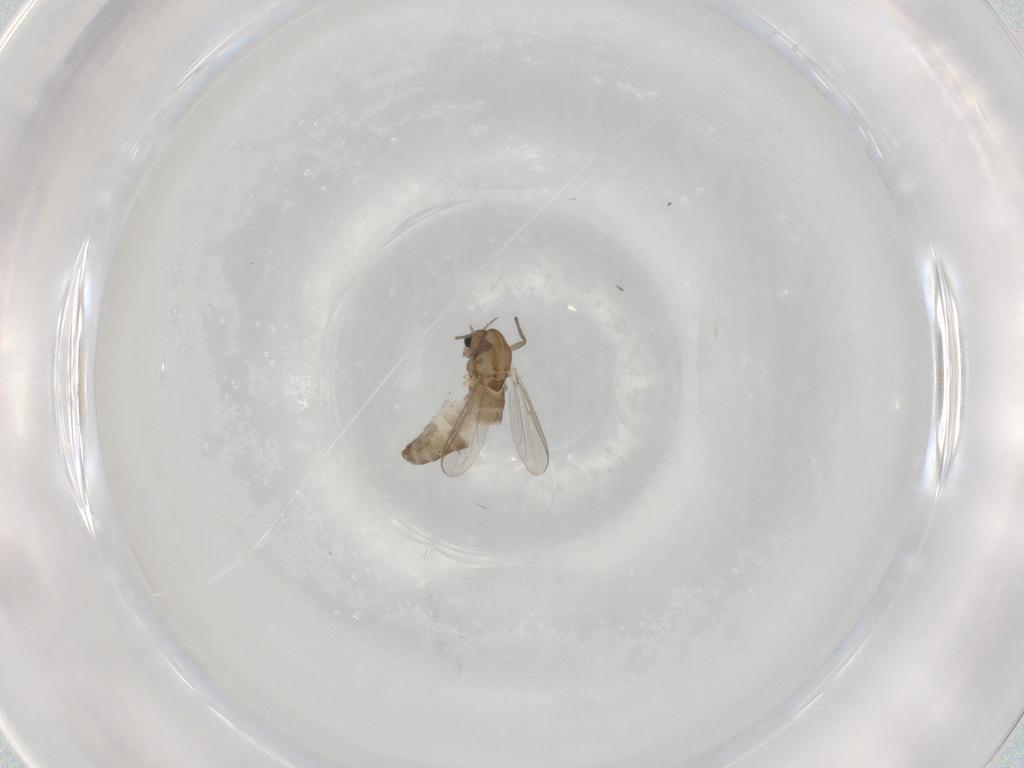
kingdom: Animalia
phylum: Arthropoda
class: Insecta
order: Diptera
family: Chironomidae
